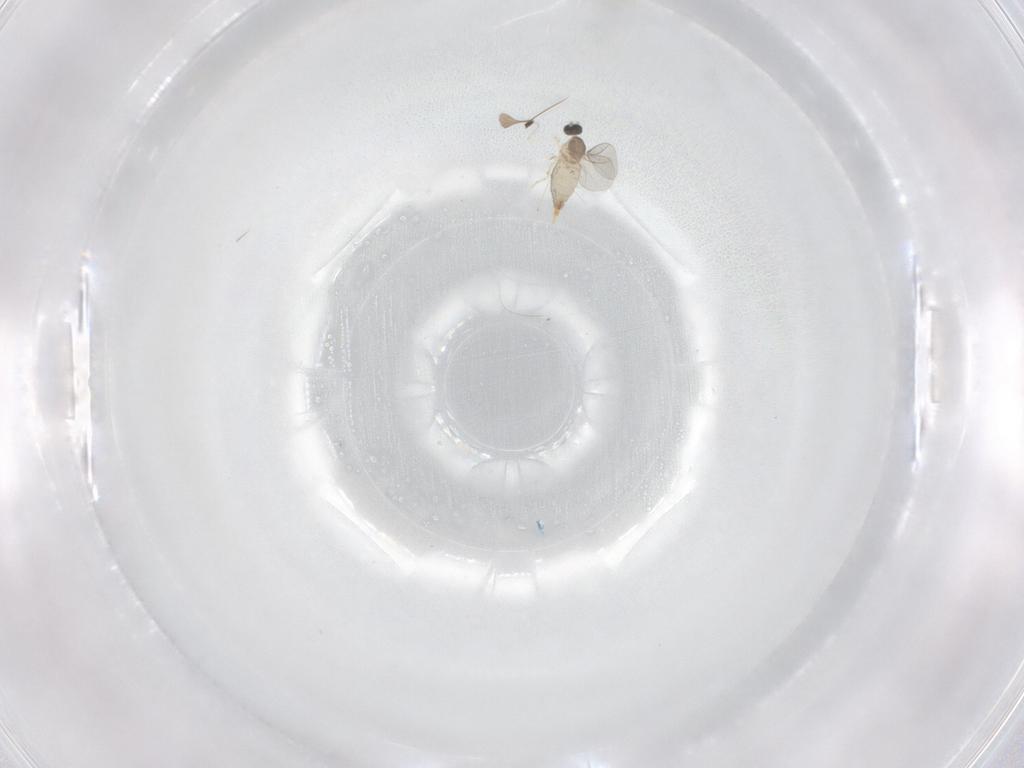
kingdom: Animalia
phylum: Arthropoda
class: Insecta
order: Diptera
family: Cecidomyiidae
